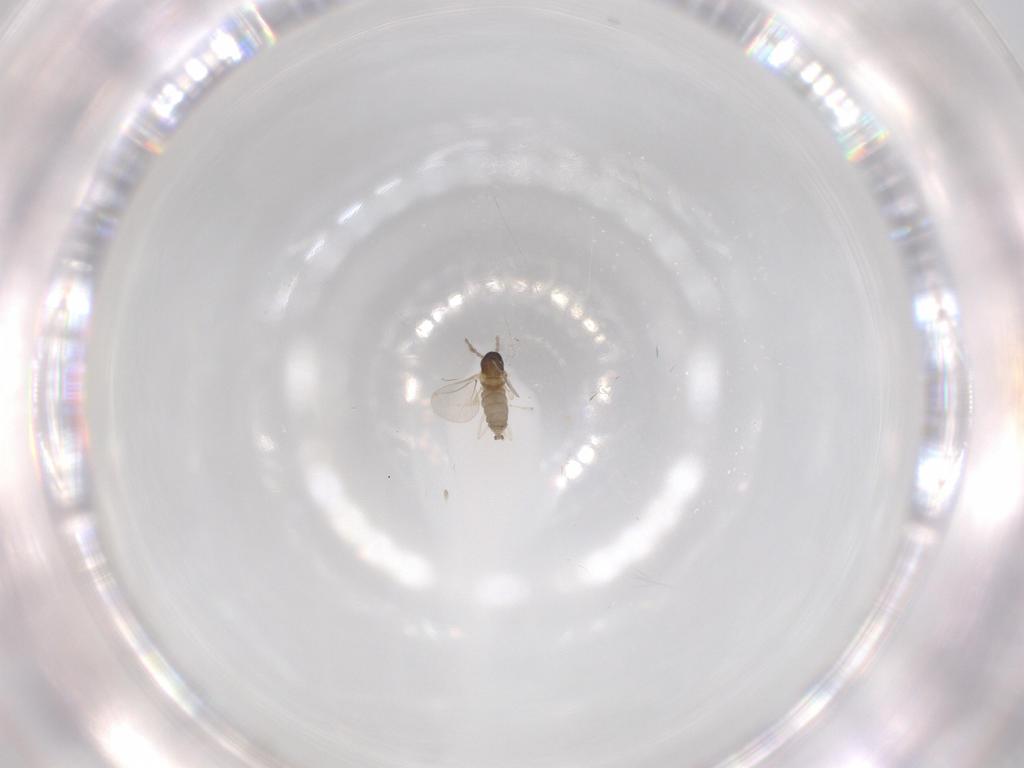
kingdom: Animalia
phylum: Arthropoda
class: Insecta
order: Diptera
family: Cecidomyiidae
